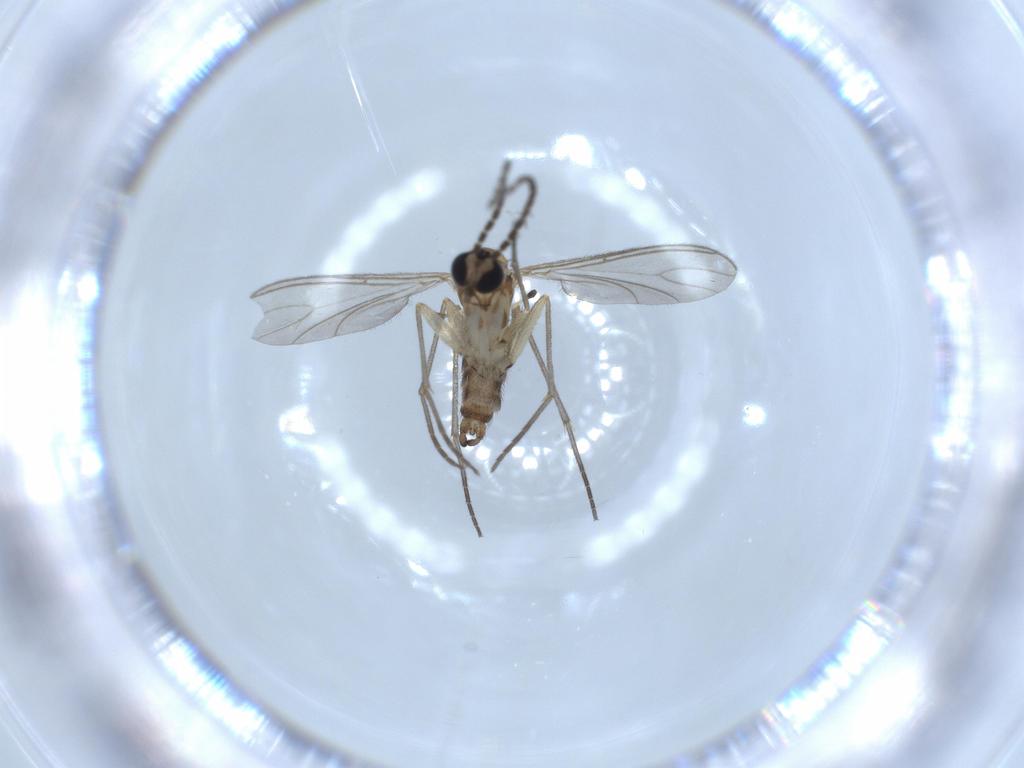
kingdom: Animalia
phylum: Arthropoda
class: Insecta
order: Diptera
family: Sciaridae
